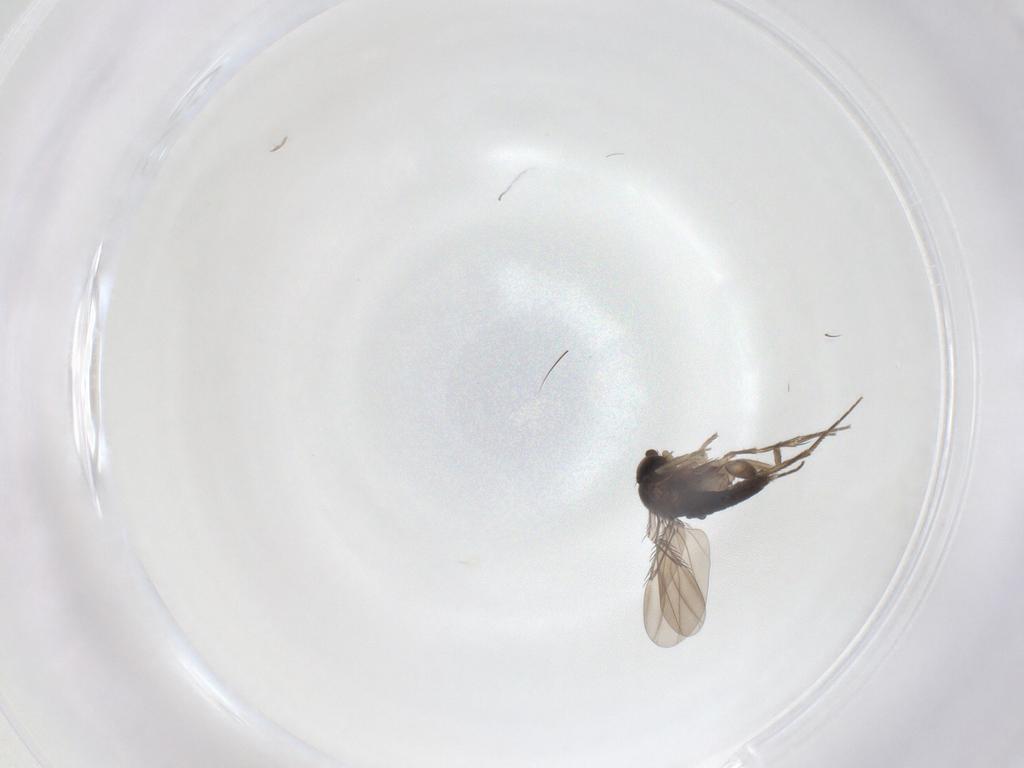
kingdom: Animalia
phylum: Arthropoda
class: Insecta
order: Diptera
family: Phoridae
